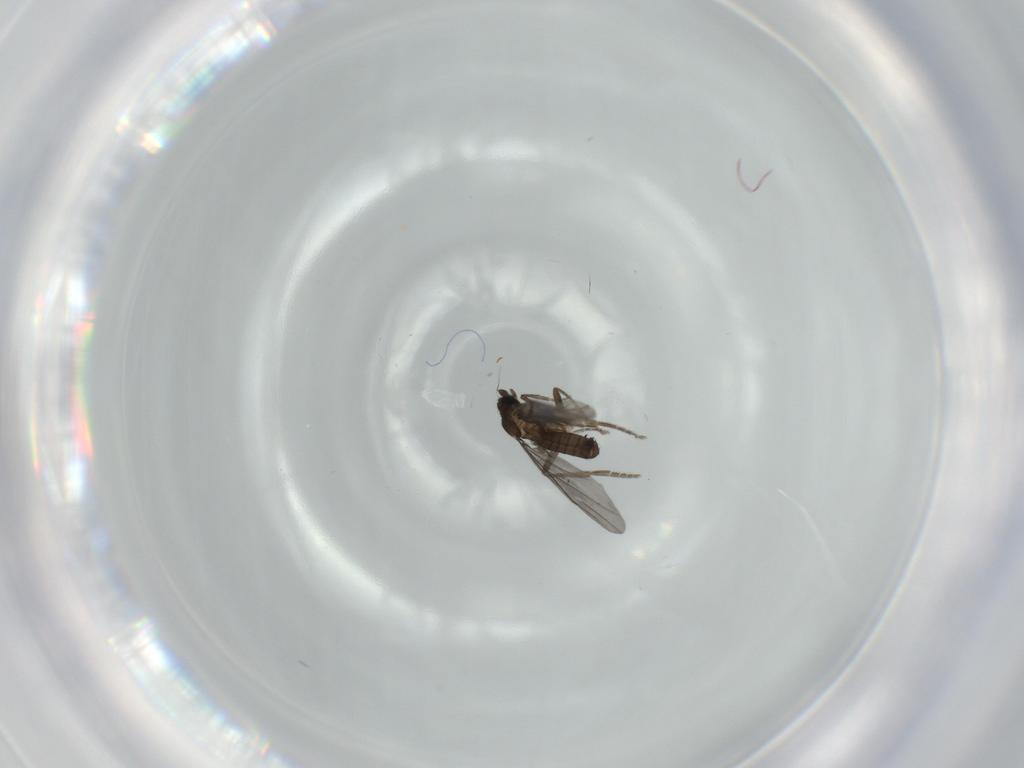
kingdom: Animalia
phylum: Arthropoda
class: Insecta
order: Diptera
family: Phoridae
